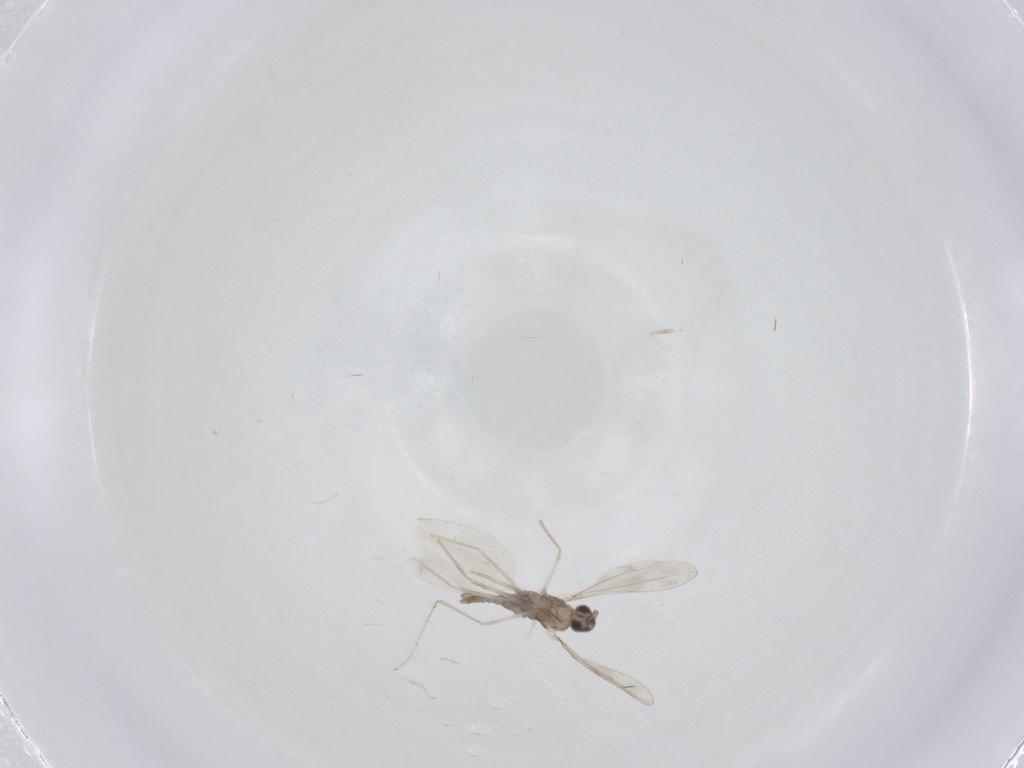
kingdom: Animalia
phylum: Arthropoda
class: Insecta
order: Diptera
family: Cecidomyiidae
